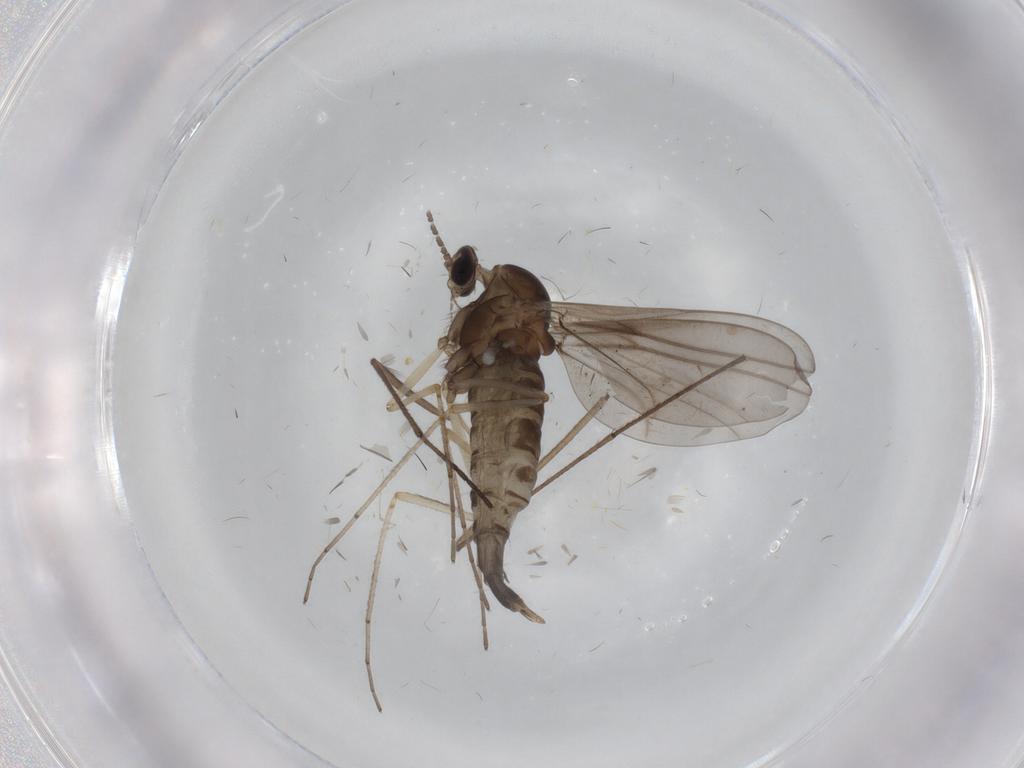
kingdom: Animalia
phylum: Arthropoda
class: Insecta
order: Diptera
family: Cecidomyiidae
